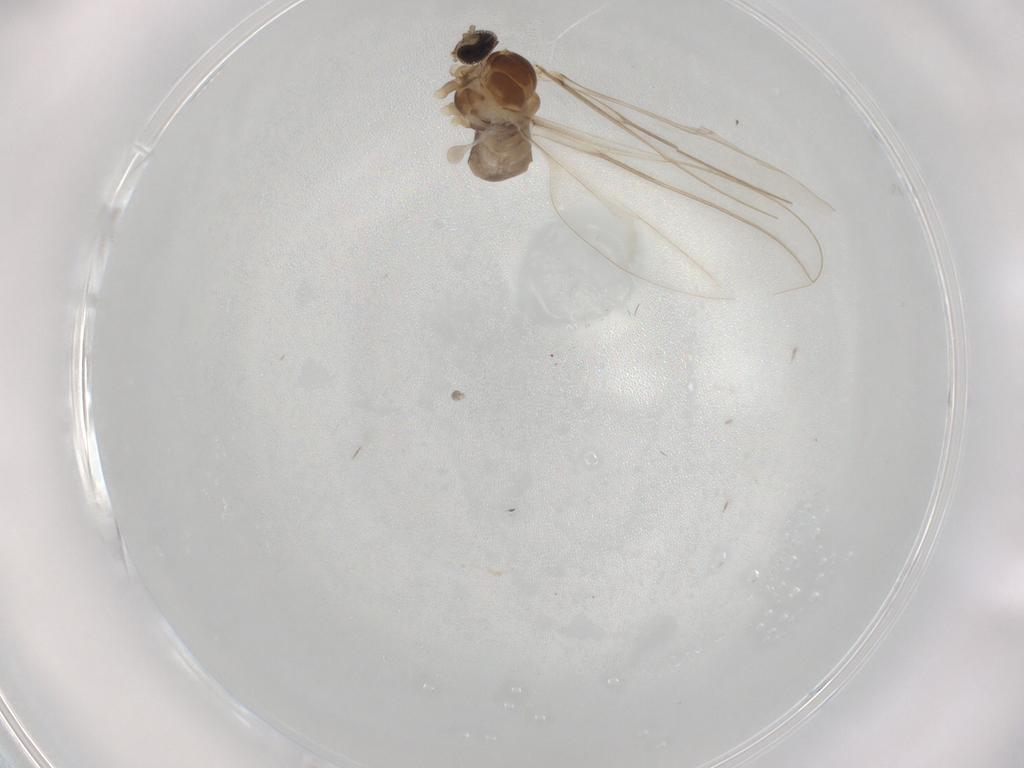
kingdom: Animalia
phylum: Arthropoda
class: Insecta
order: Diptera
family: Cecidomyiidae
